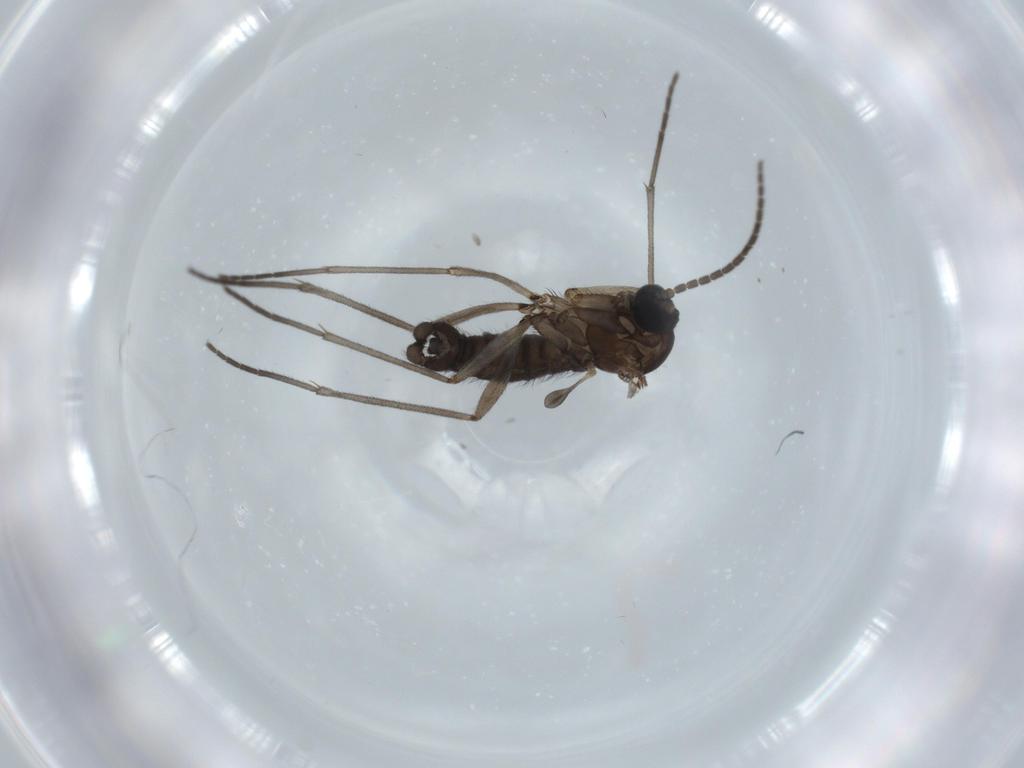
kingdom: Animalia
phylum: Arthropoda
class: Insecta
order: Diptera
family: Sciaridae
